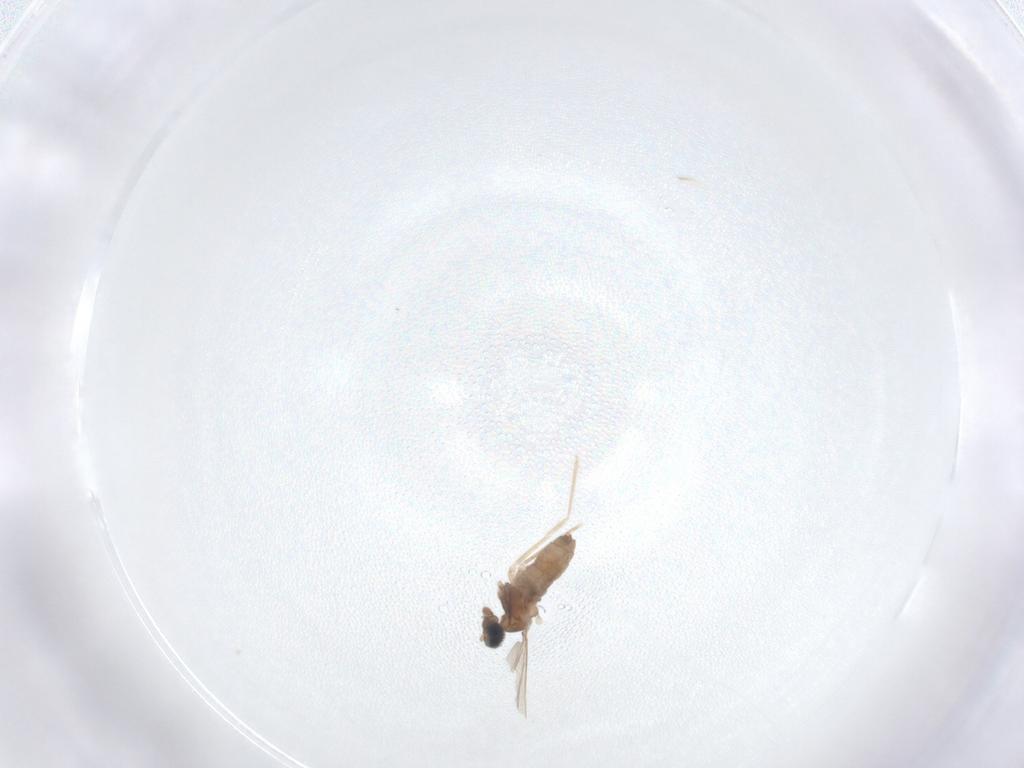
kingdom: Animalia
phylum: Arthropoda
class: Insecta
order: Diptera
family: Cecidomyiidae
